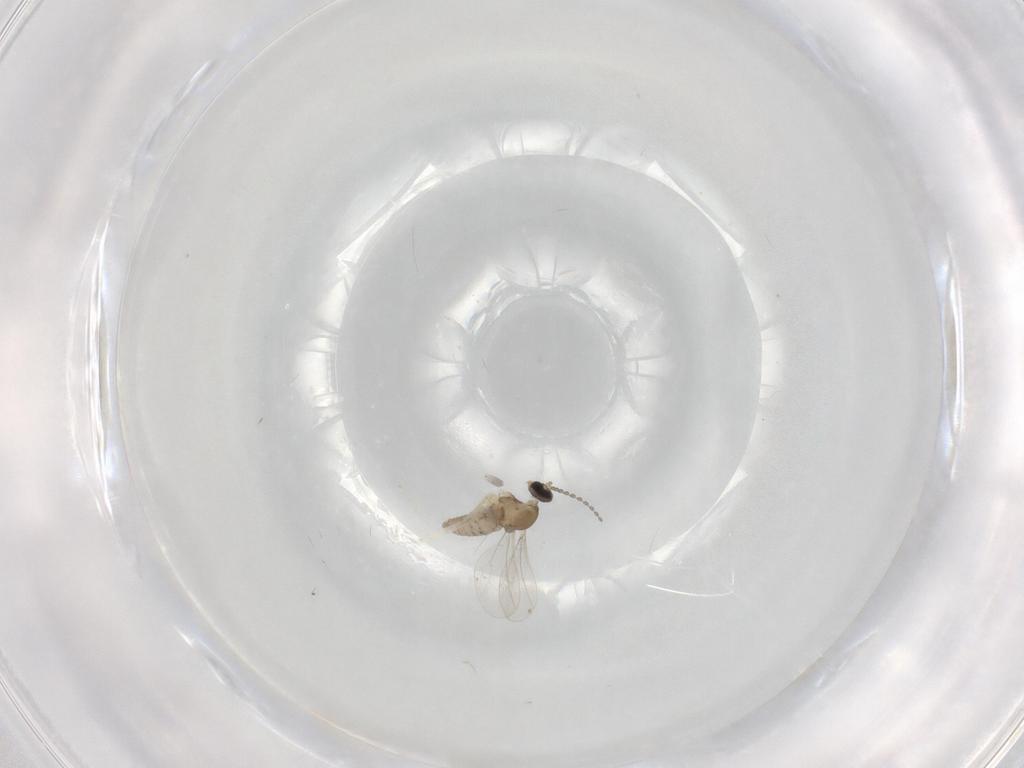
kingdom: Animalia
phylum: Arthropoda
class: Insecta
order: Diptera
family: Cecidomyiidae
